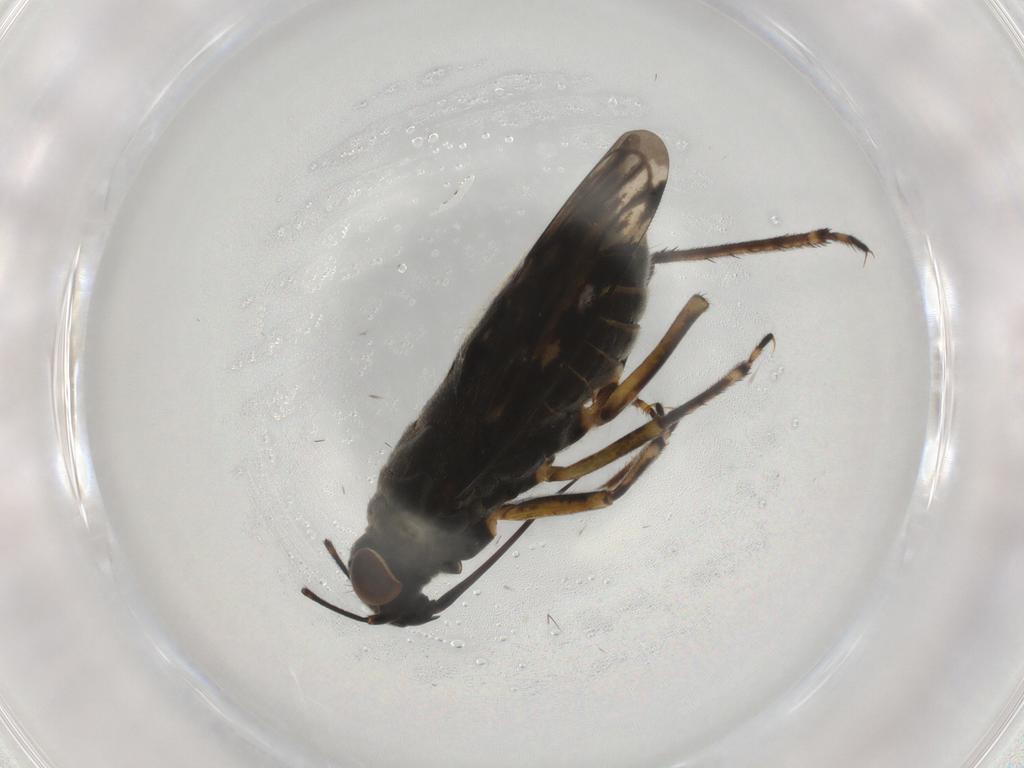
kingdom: Animalia
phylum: Arthropoda
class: Insecta
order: Hemiptera
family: Saldidae
